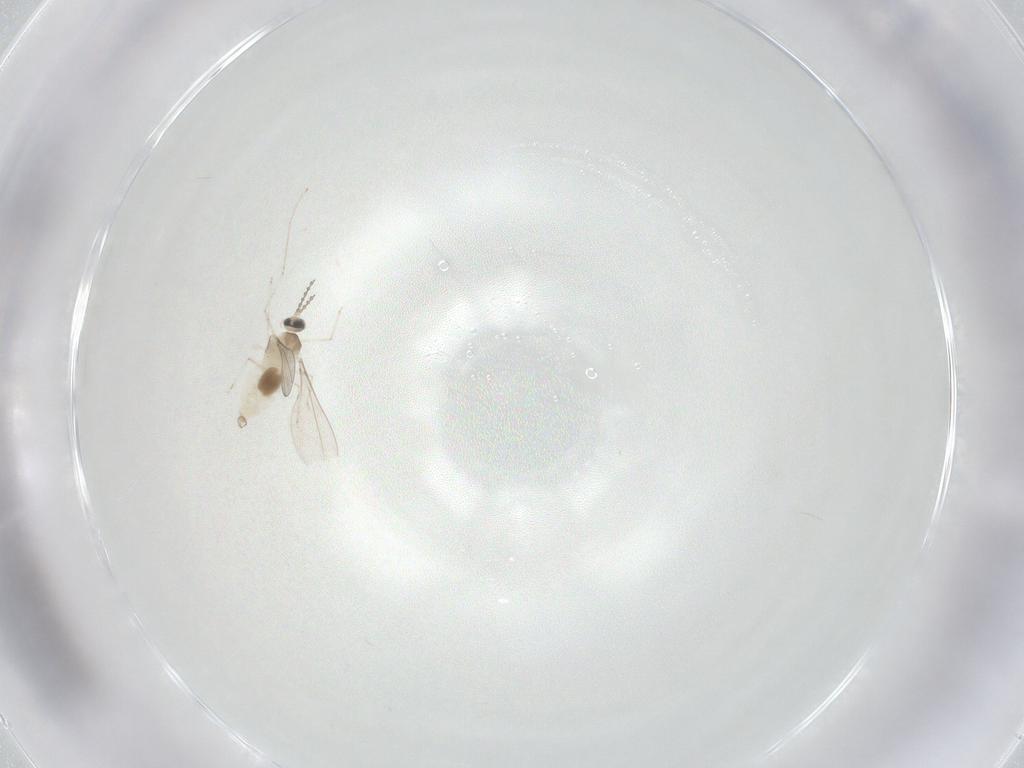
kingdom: Animalia
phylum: Arthropoda
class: Insecta
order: Diptera
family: Cecidomyiidae
